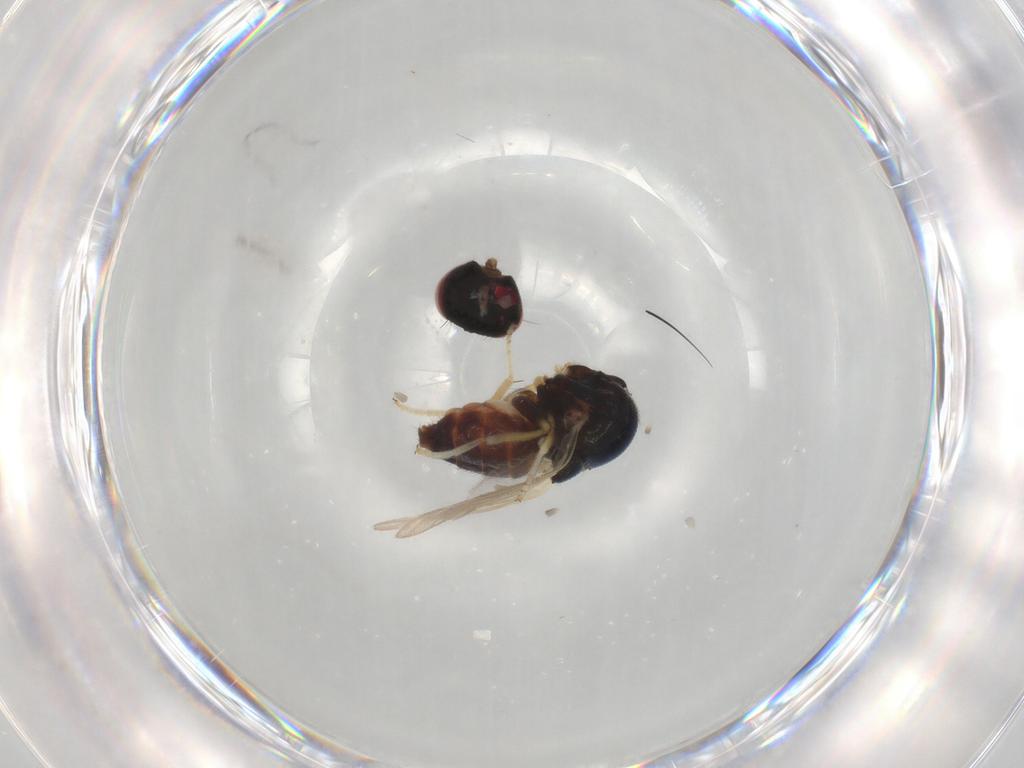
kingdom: Animalia
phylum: Arthropoda
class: Insecta
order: Diptera
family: Chloropidae
